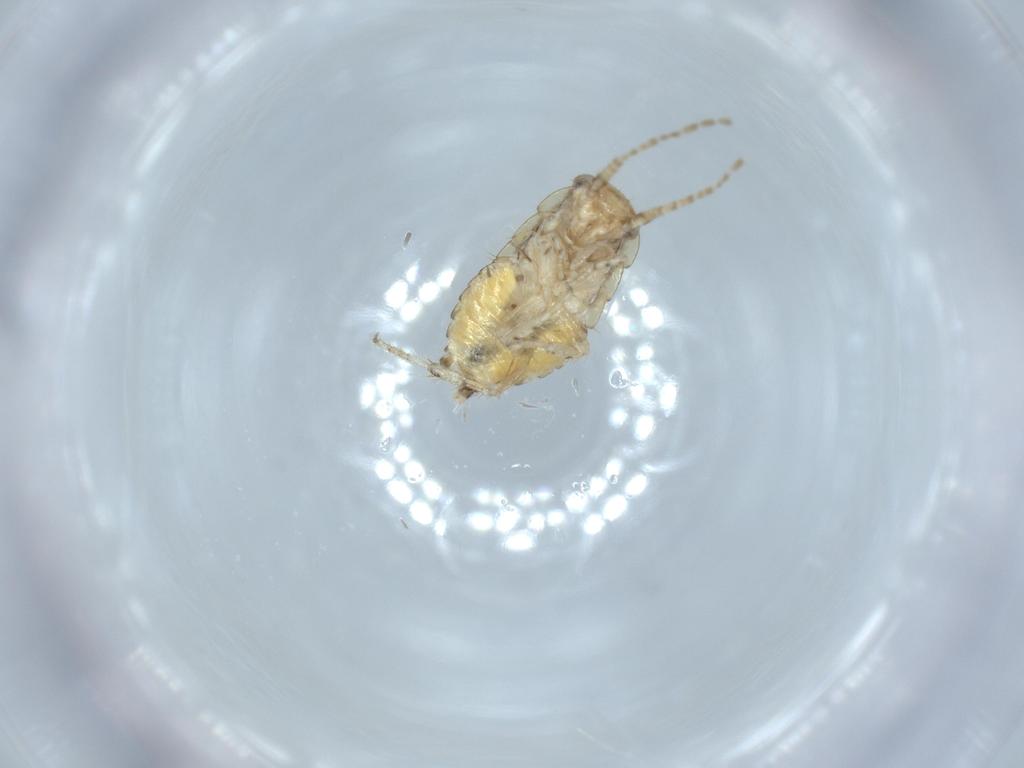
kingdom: Animalia
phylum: Arthropoda
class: Insecta
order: Blattodea
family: Ectobiidae
